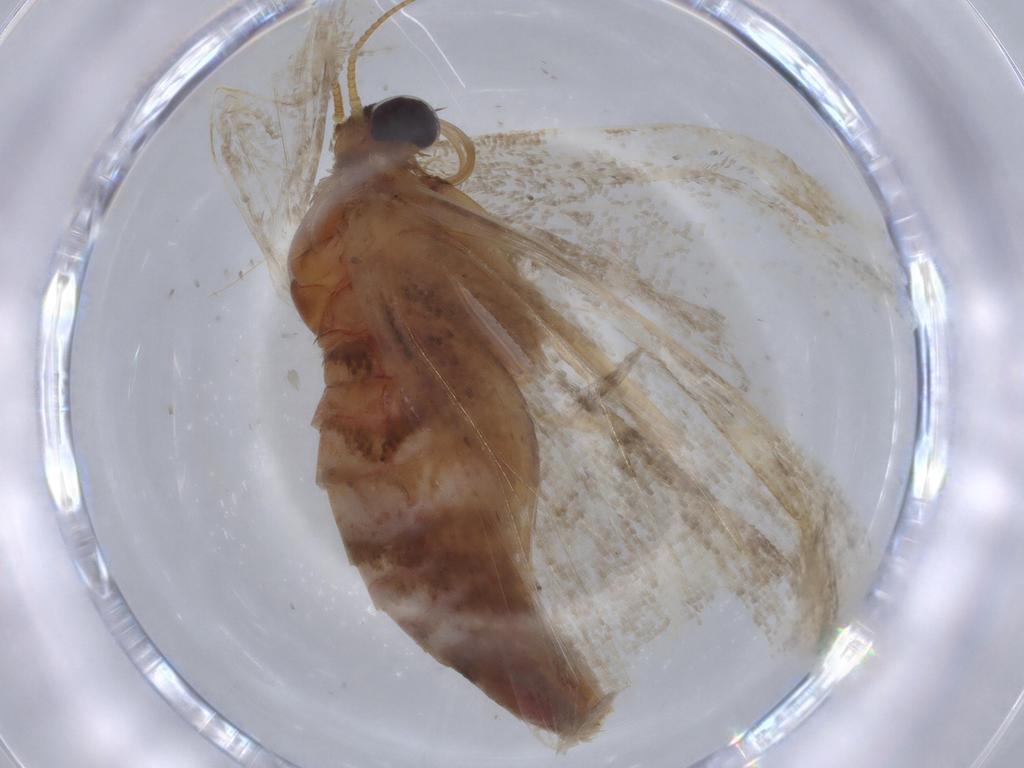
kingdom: Animalia
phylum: Arthropoda
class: Insecta
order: Lepidoptera
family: Geometridae
